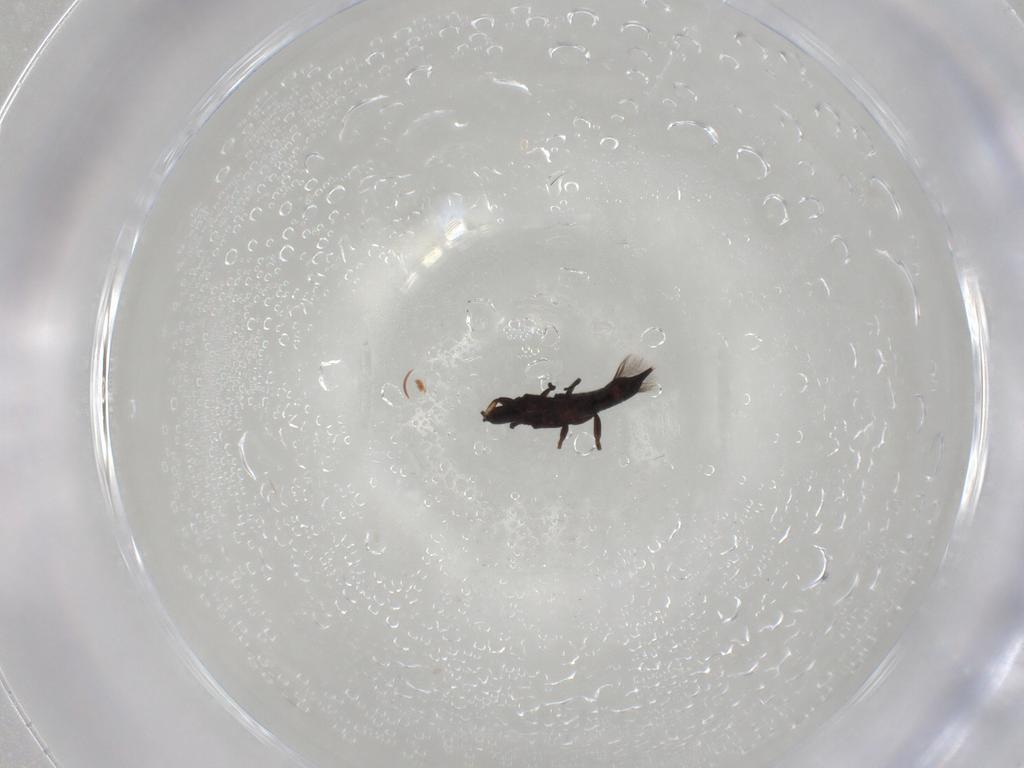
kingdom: Animalia
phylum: Arthropoda
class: Insecta
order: Thysanoptera
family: Phlaeothripidae
